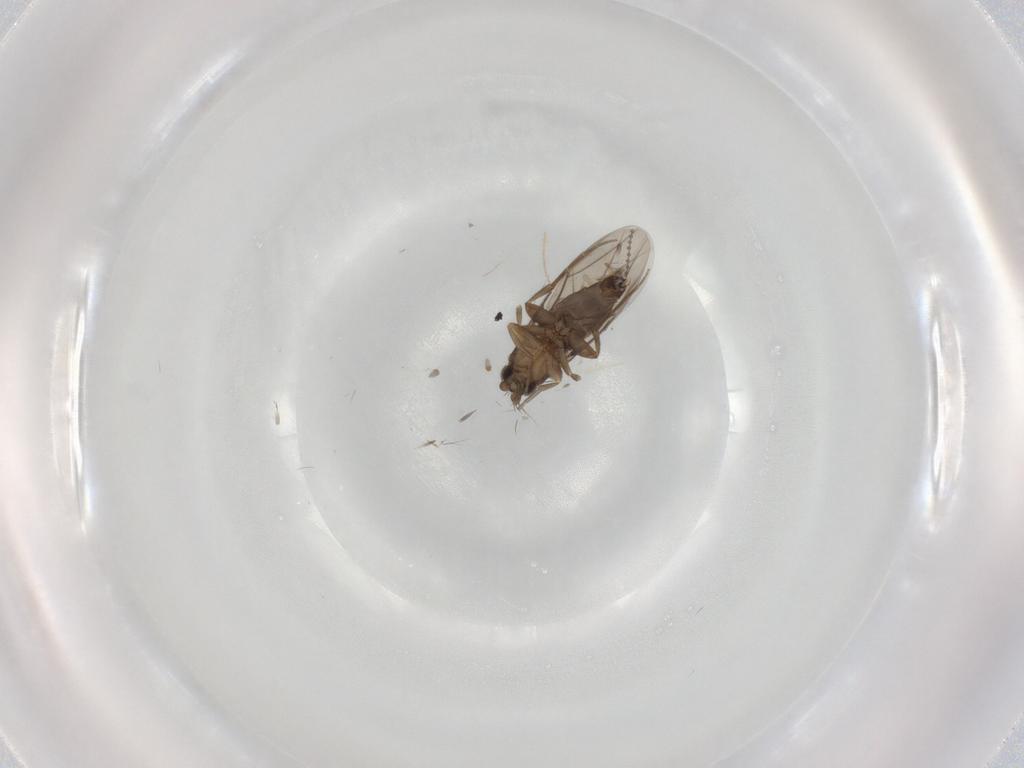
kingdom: Animalia
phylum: Arthropoda
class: Insecta
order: Diptera
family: Phoridae
